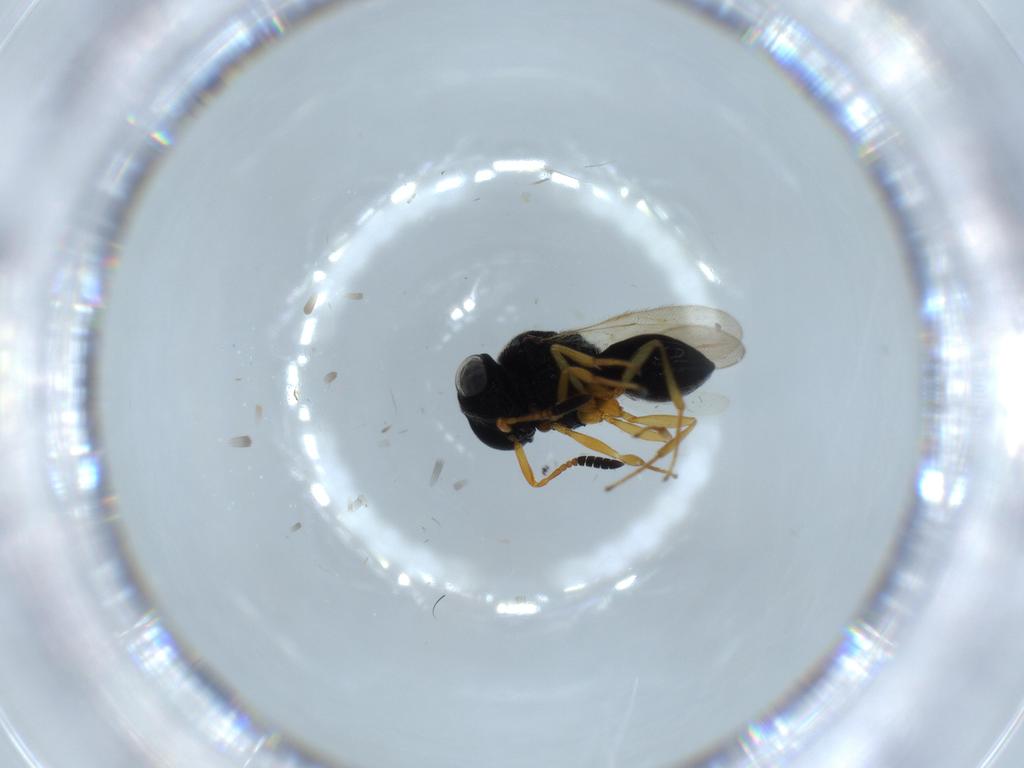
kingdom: Animalia
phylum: Arthropoda
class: Insecta
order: Hymenoptera
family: Scelionidae
